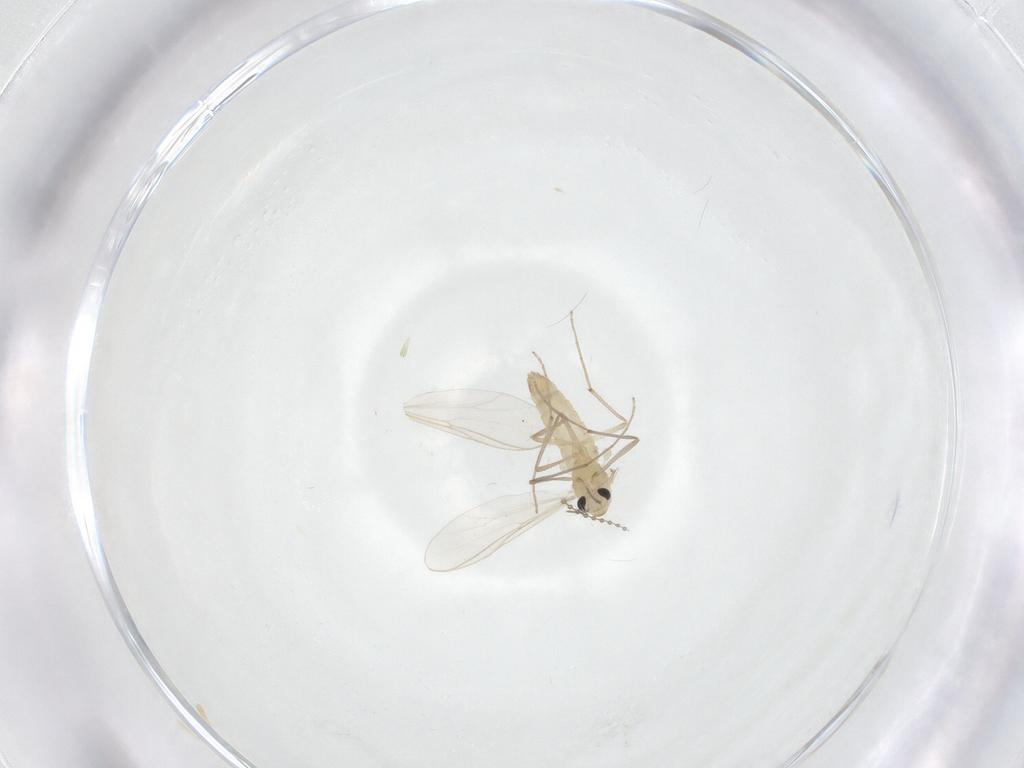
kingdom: Animalia
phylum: Arthropoda
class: Insecta
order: Diptera
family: Chironomidae
